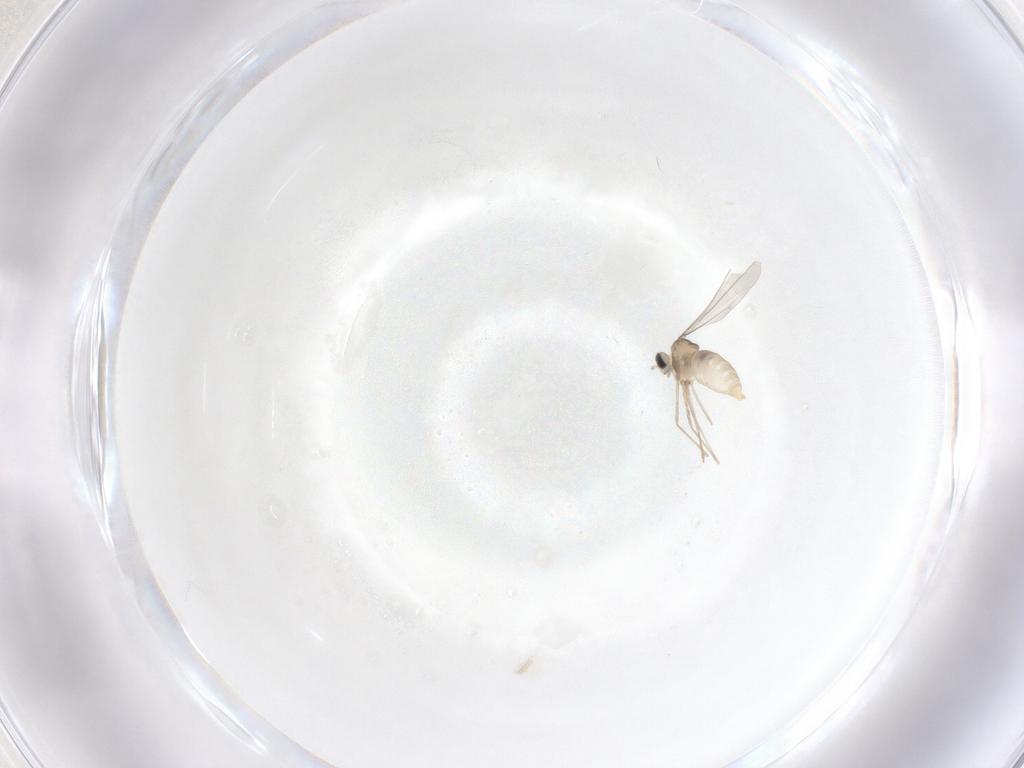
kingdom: Animalia
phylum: Arthropoda
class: Insecta
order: Diptera
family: Cecidomyiidae
